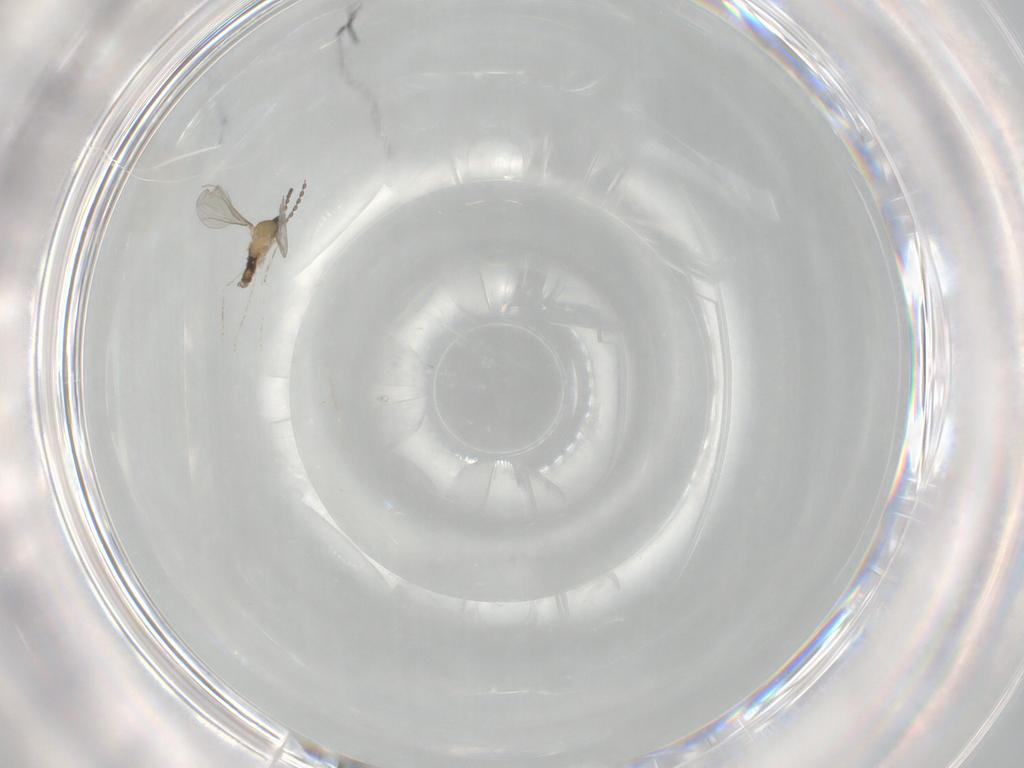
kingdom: Animalia
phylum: Arthropoda
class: Insecta
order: Diptera
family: Cecidomyiidae
